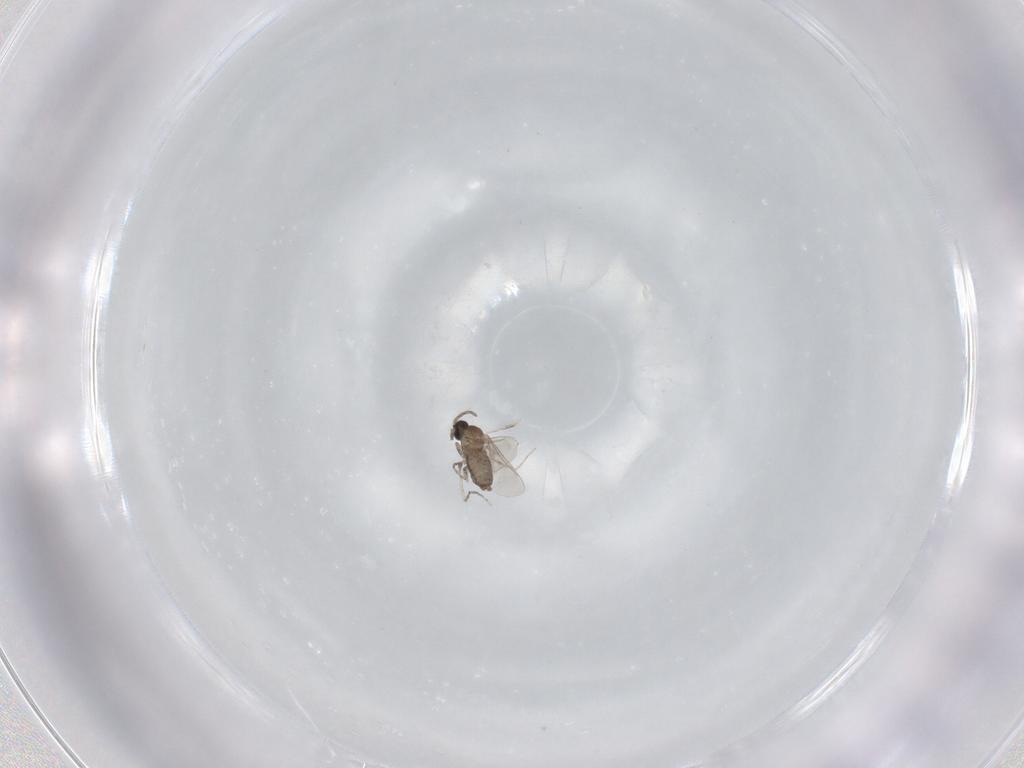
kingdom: Animalia
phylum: Arthropoda
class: Insecta
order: Diptera
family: Cecidomyiidae
